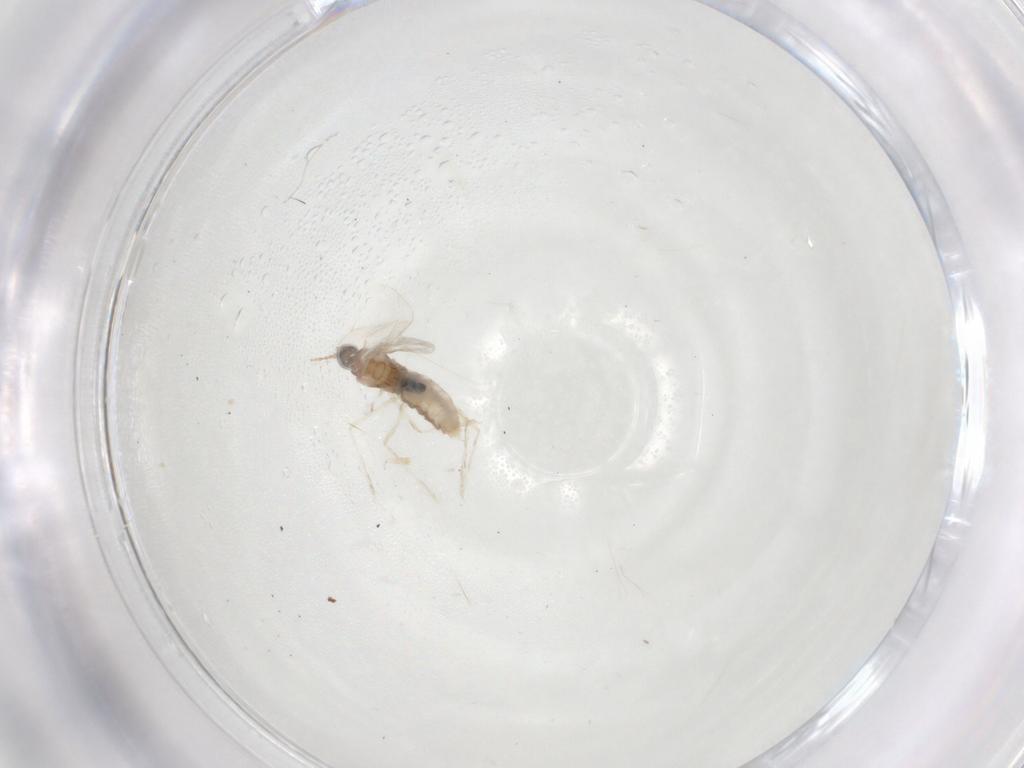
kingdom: Animalia
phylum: Arthropoda
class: Insecta
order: Diptera
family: Cecidomyiidae
